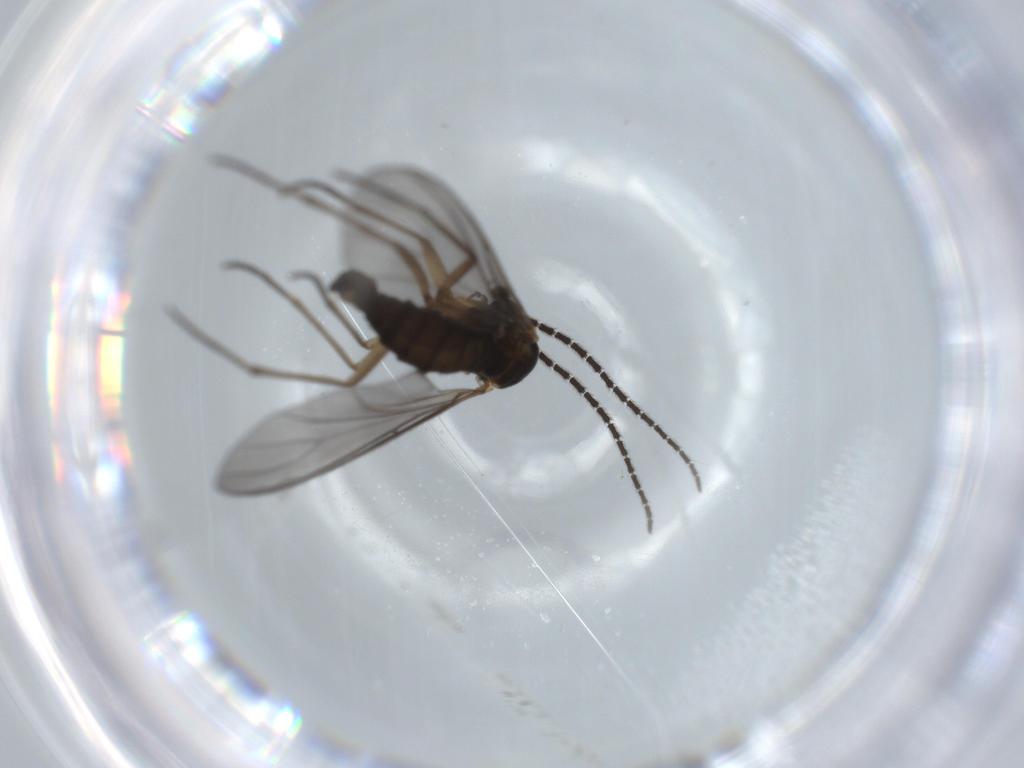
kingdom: Animalia
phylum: Arthropoda
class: Insecta
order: Diptera
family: Sciaridae
